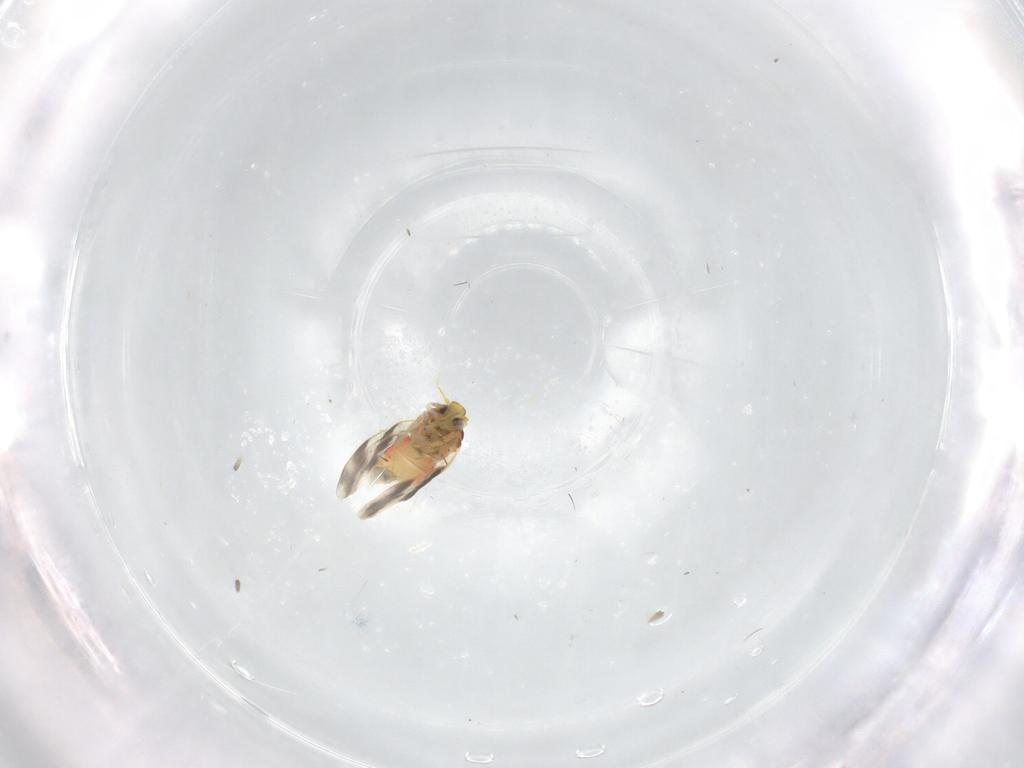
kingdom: Animalia
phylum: Arthropoda
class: Insecta
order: Hemiptera
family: Aleyrodidae
